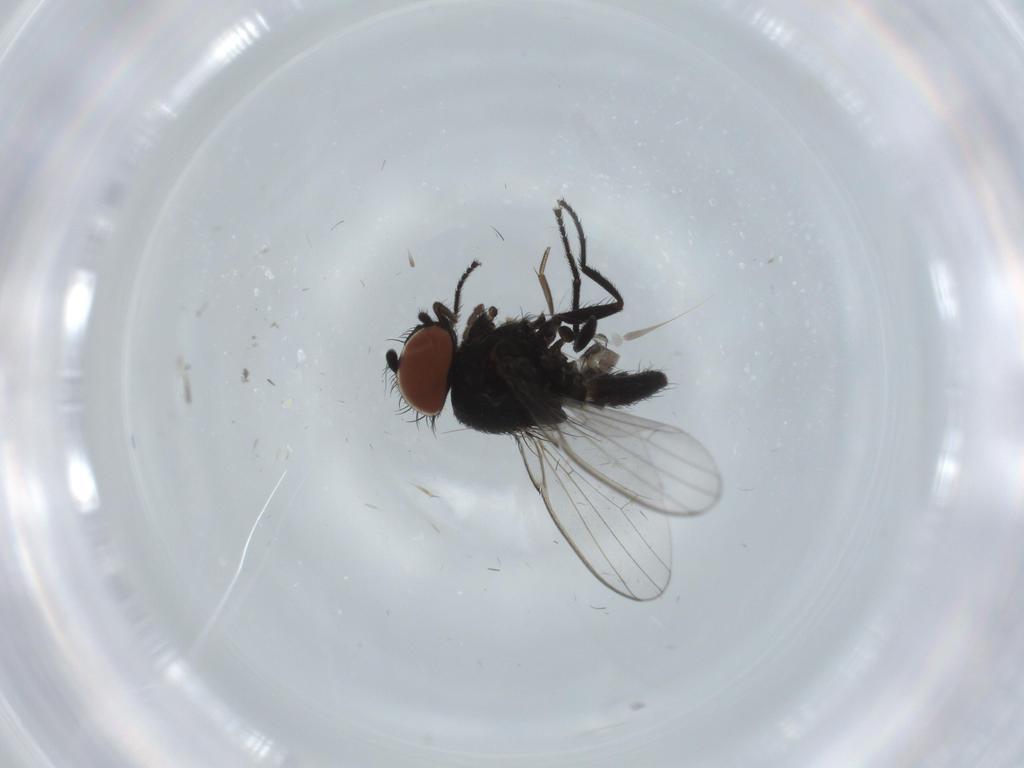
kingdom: Animalia
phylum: Arthropoda
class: Insecta
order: Diptera
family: Milichiidae
